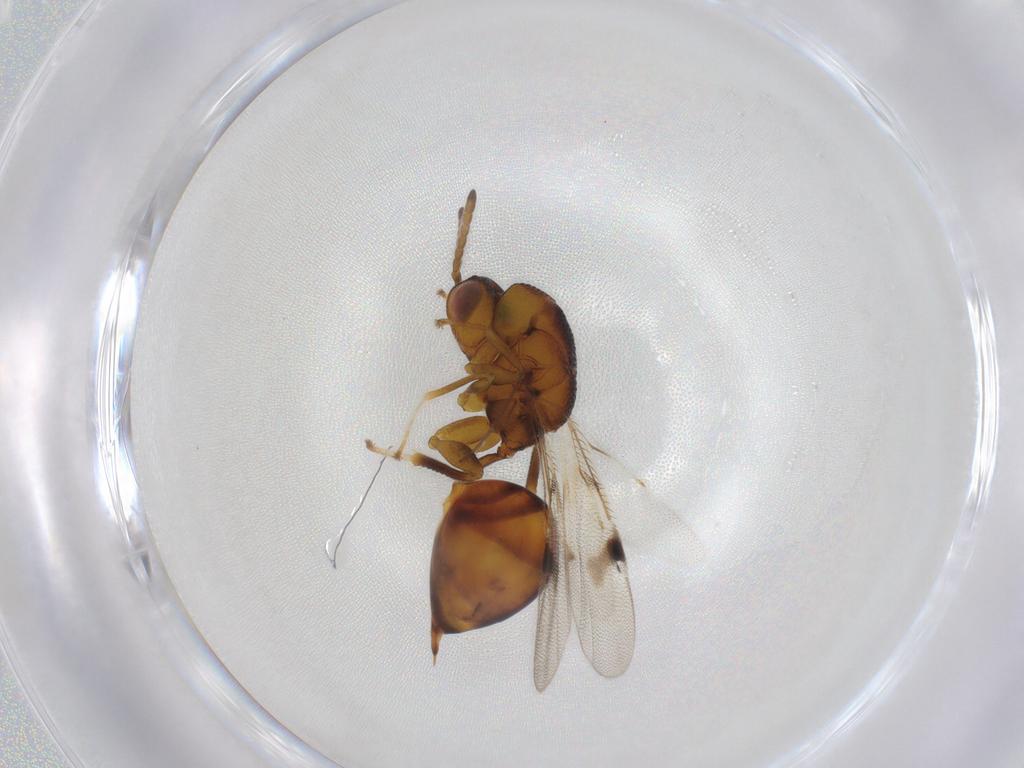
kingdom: Animalia
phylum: Arthropoda
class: Insecta
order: Hymenoptera
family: Eurytomidae
